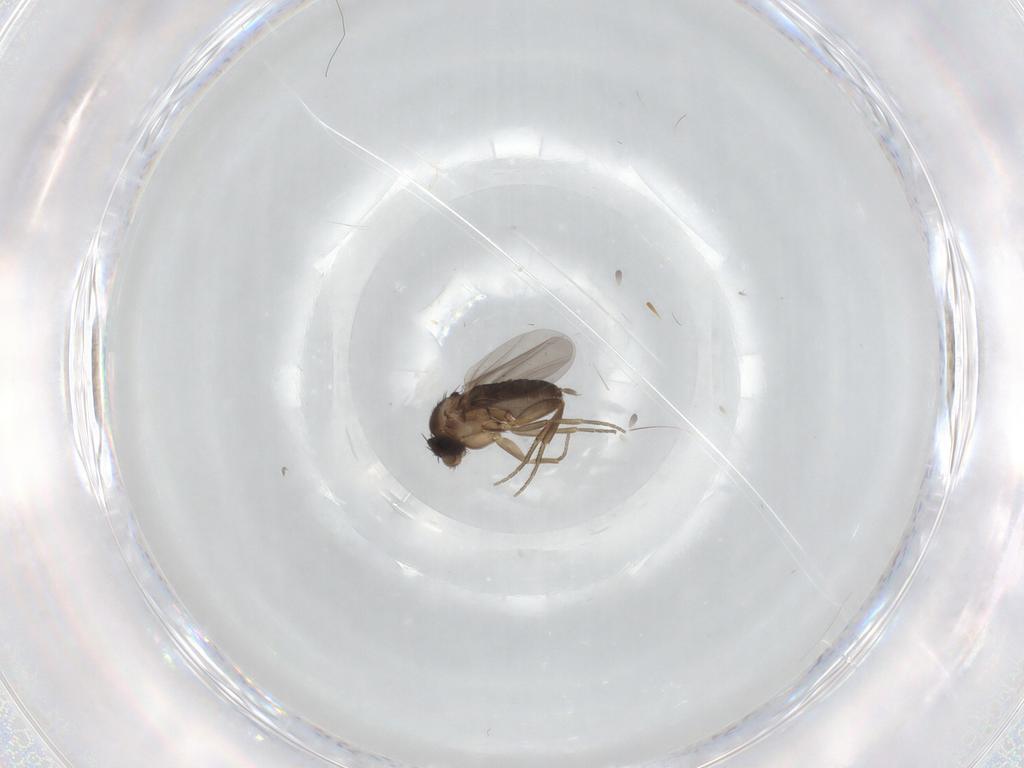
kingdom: Animalia
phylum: Arthropoda
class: Insecta
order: Diptera
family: Phoridae
